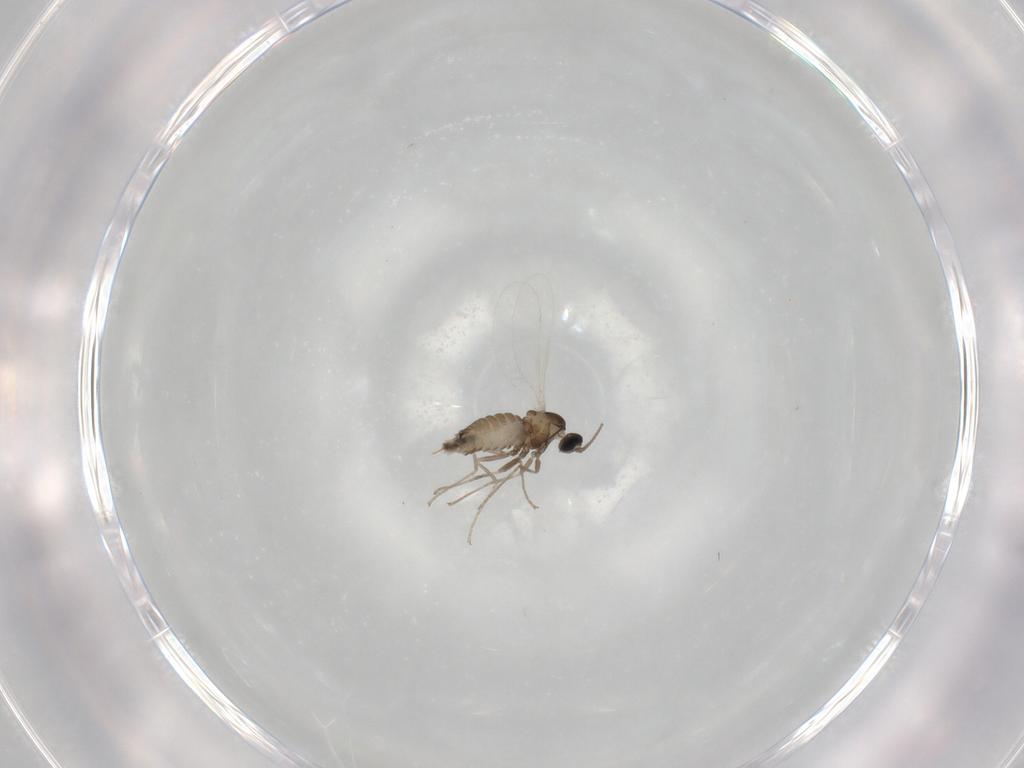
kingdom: Animalia
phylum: Arthropoda
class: Insecta
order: Diptera
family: Cecidomyiidae
